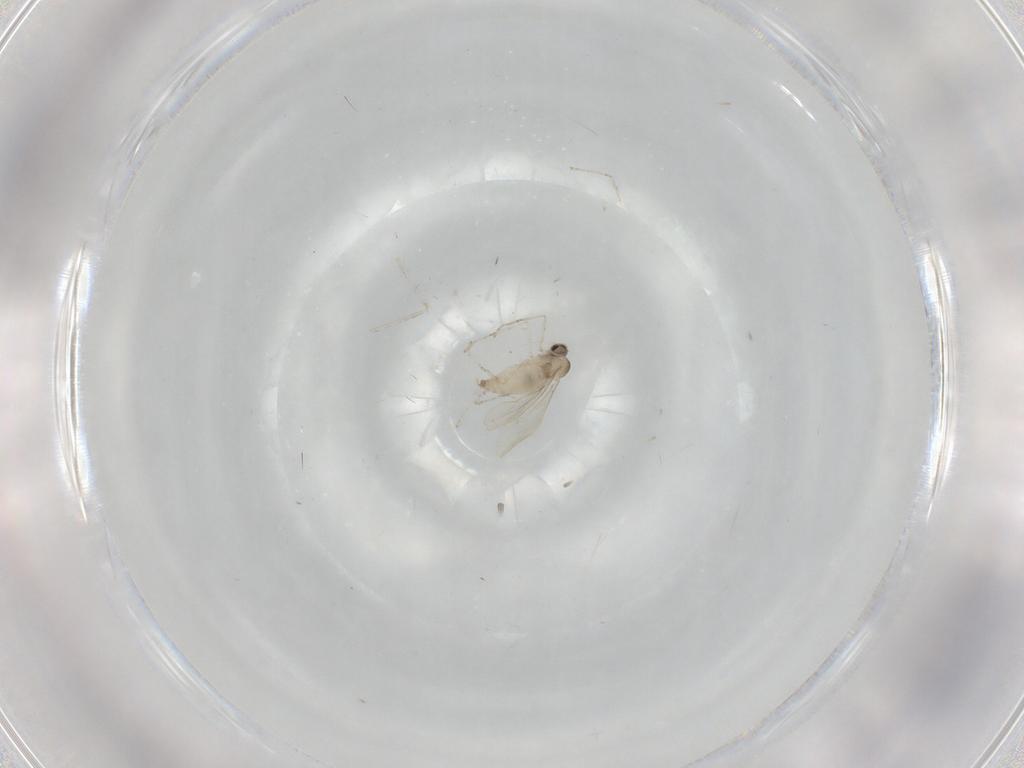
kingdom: Animalia
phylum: Arthropoda
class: Insecta
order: Diptera
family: Cecidomyiidae
